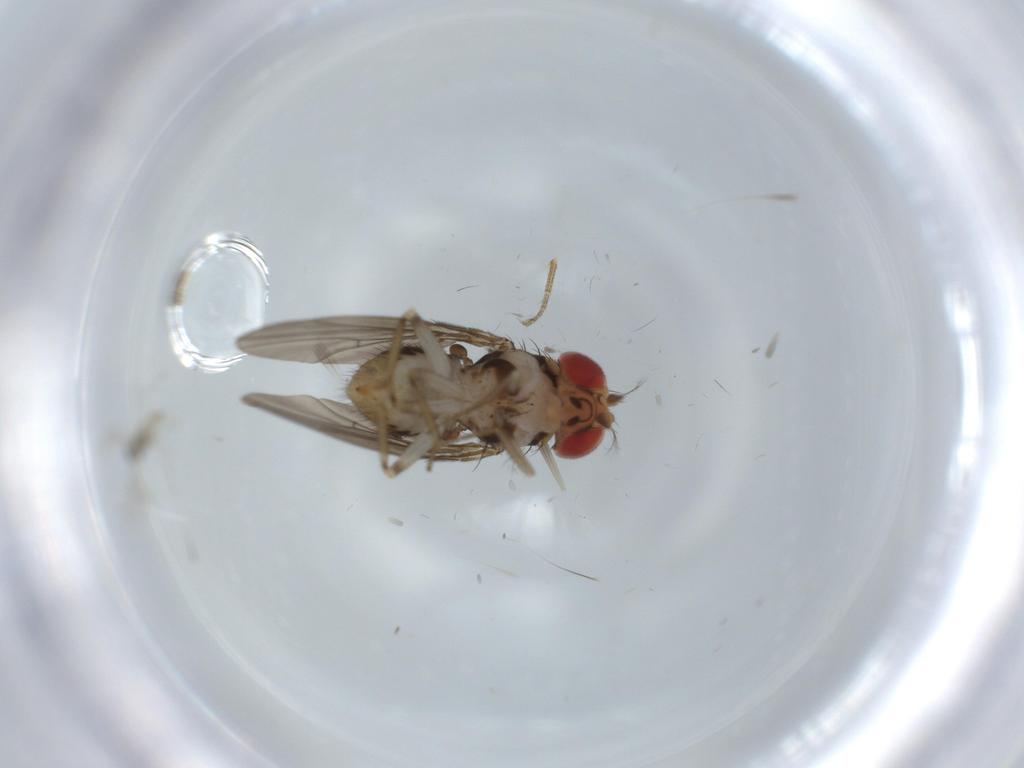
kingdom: Animalia
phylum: Arthropoda
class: Insecta
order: Diptera
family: Drosophilidae
